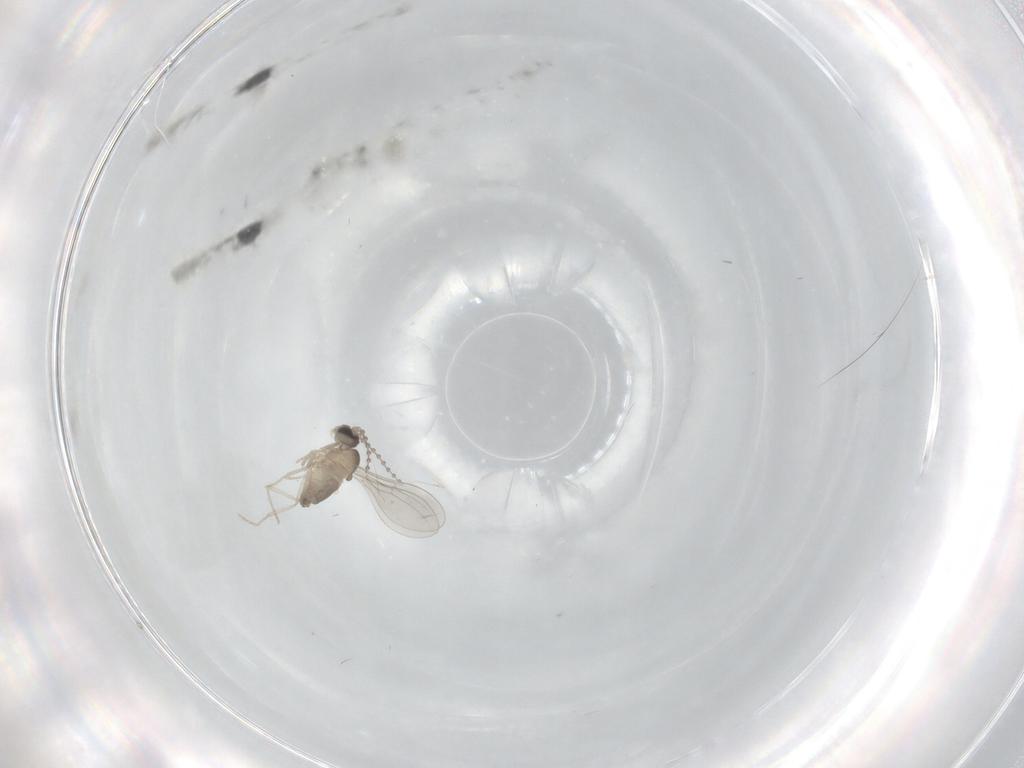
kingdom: Animalia
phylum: Arthropoda
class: Insecta
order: Diptera
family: Cecidomyiidae
